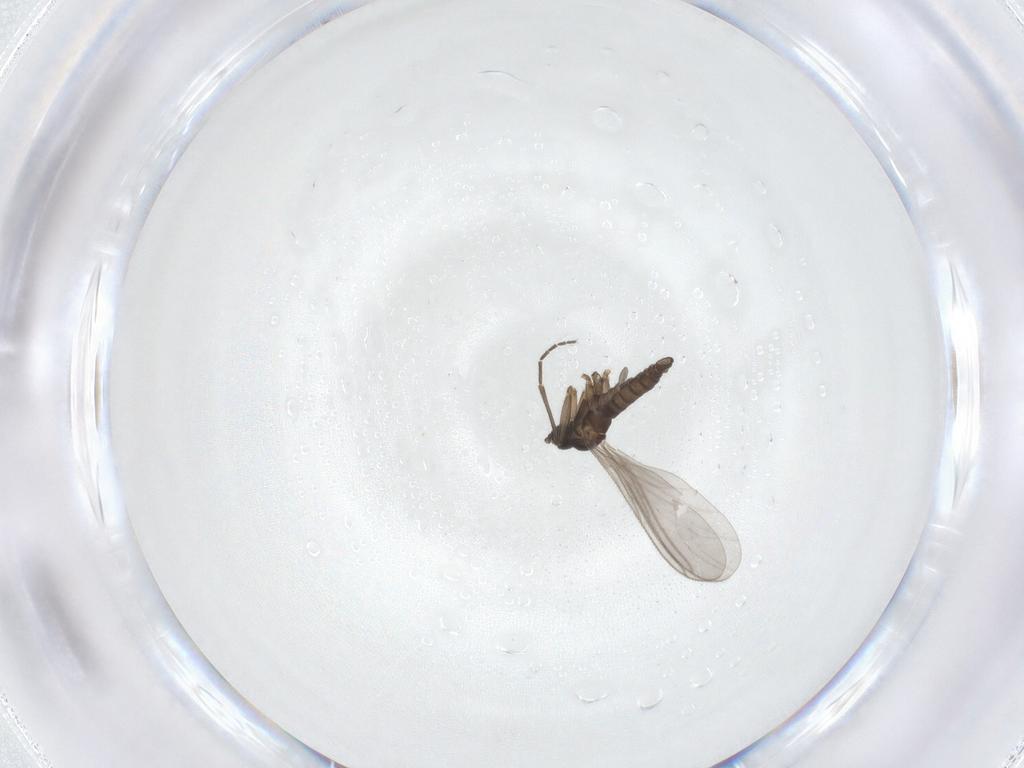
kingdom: Animalia
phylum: Arthropoda
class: Insecta
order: Diptera
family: Sciaridae
